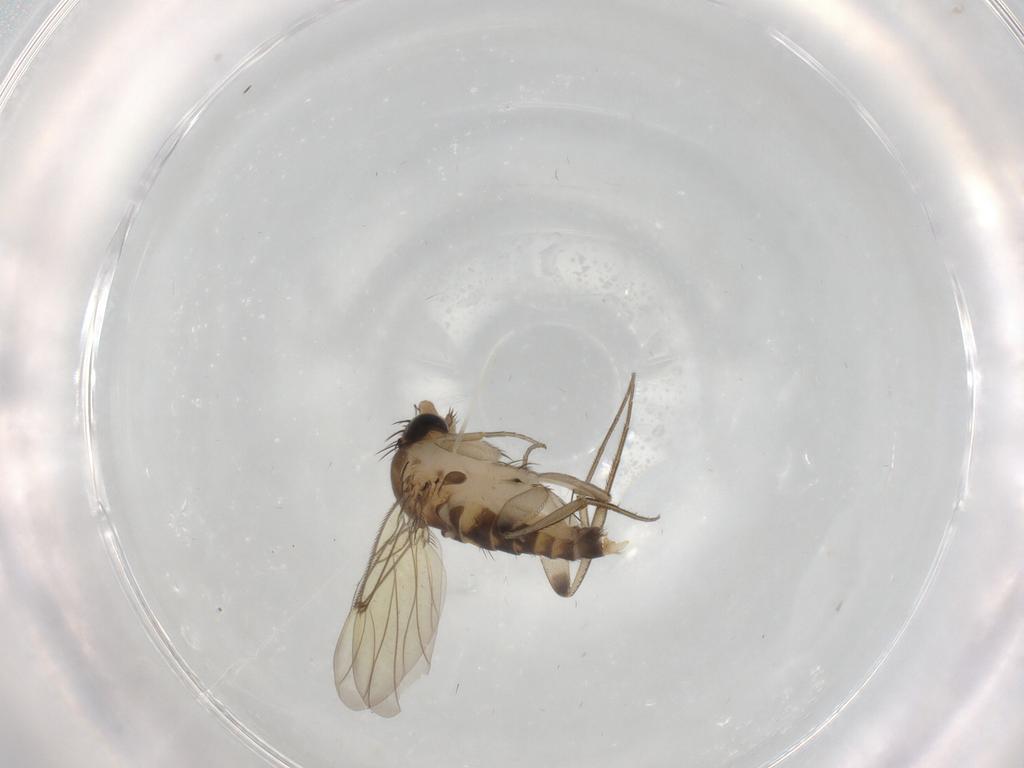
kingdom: Animalia
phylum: Arthropoda
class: Insecta
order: Diptera
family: Phoridae
